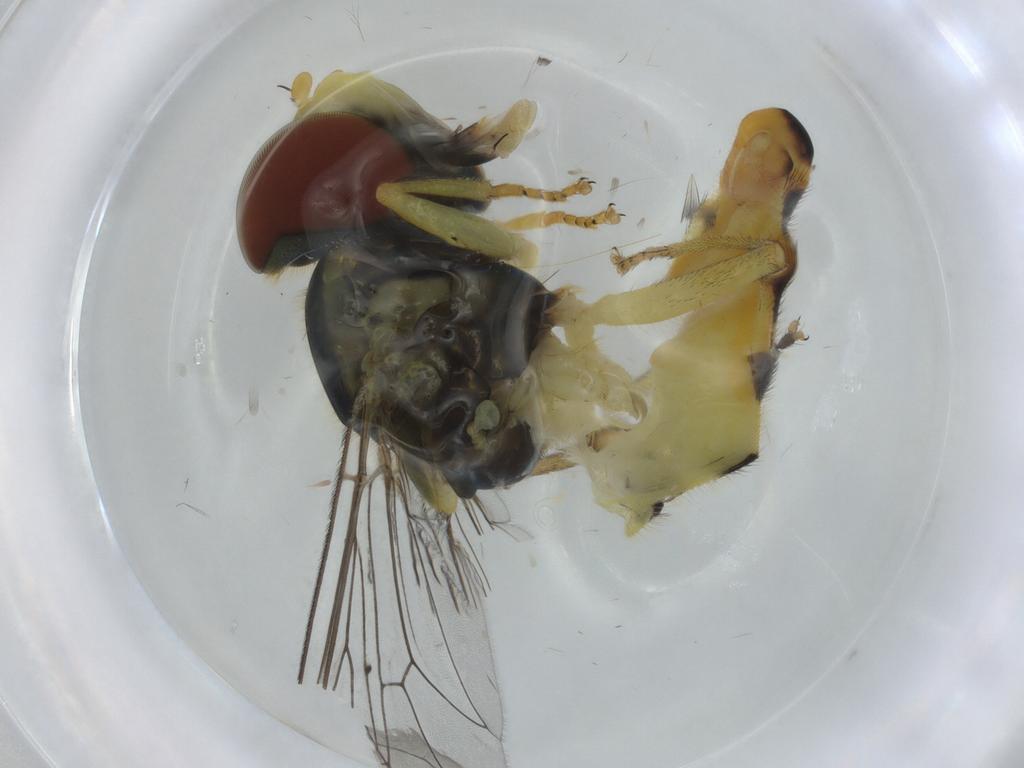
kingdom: Animalia
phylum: Arthropoda
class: Insecta
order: Diptera
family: Syrphidae
